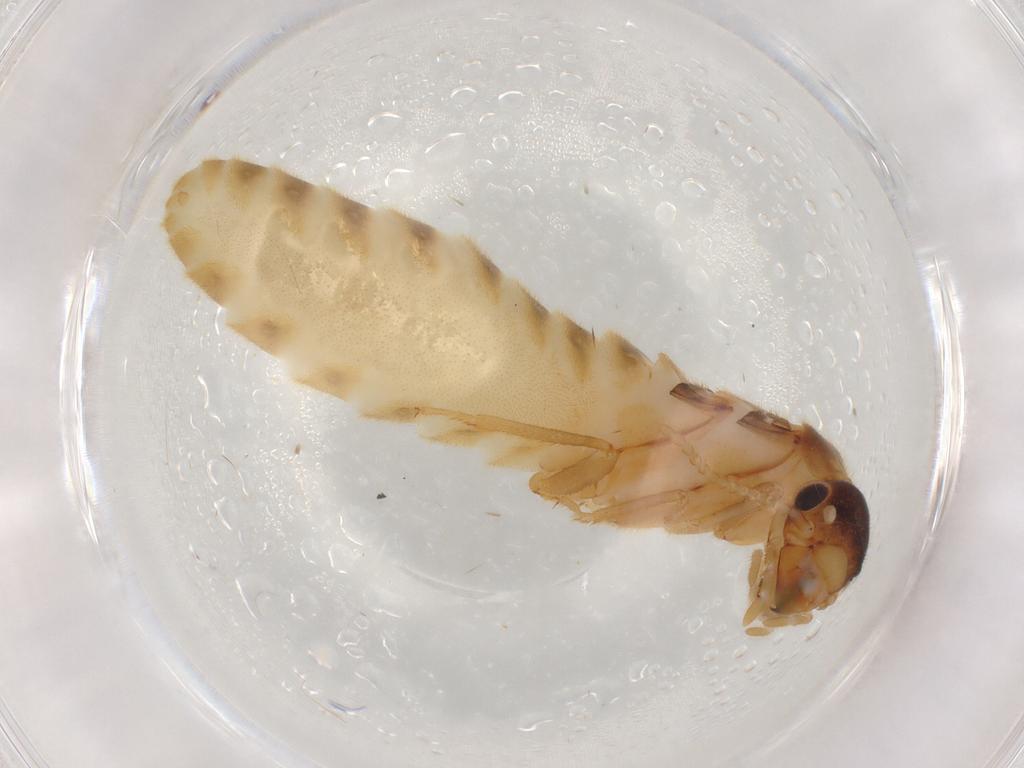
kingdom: Animalia
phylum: Arthropoda
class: Insecta
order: Blattodea
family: Termitidae
